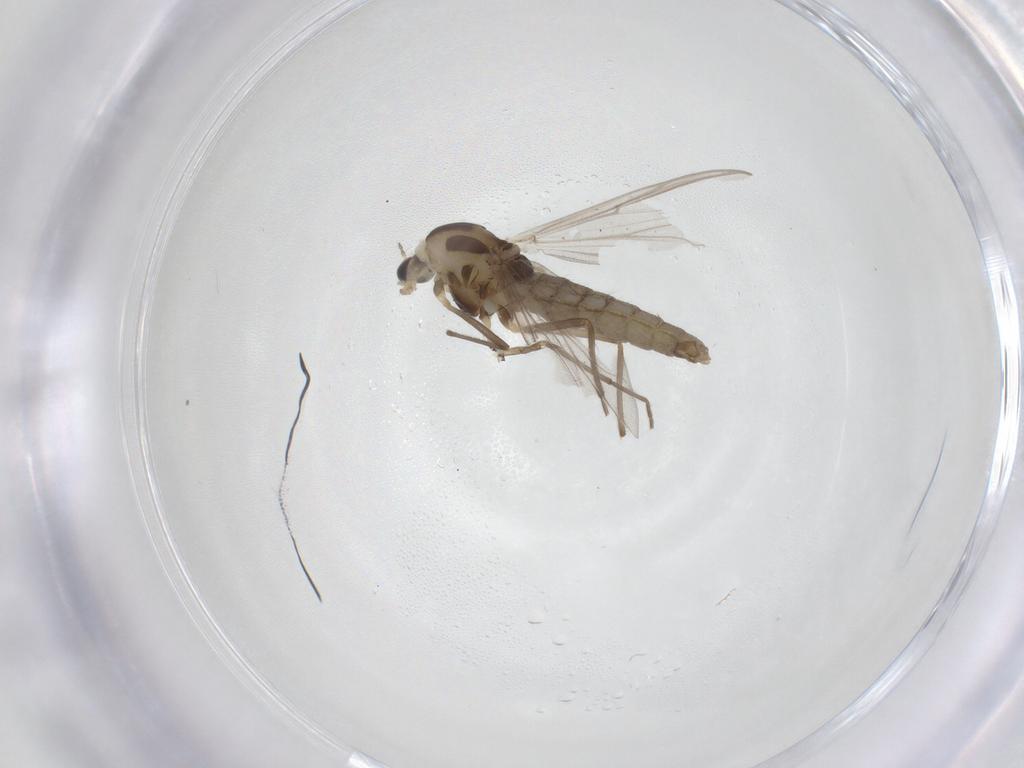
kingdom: Animalia
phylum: Arthropoda
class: Insecta
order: Diptera
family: Chironomidae
